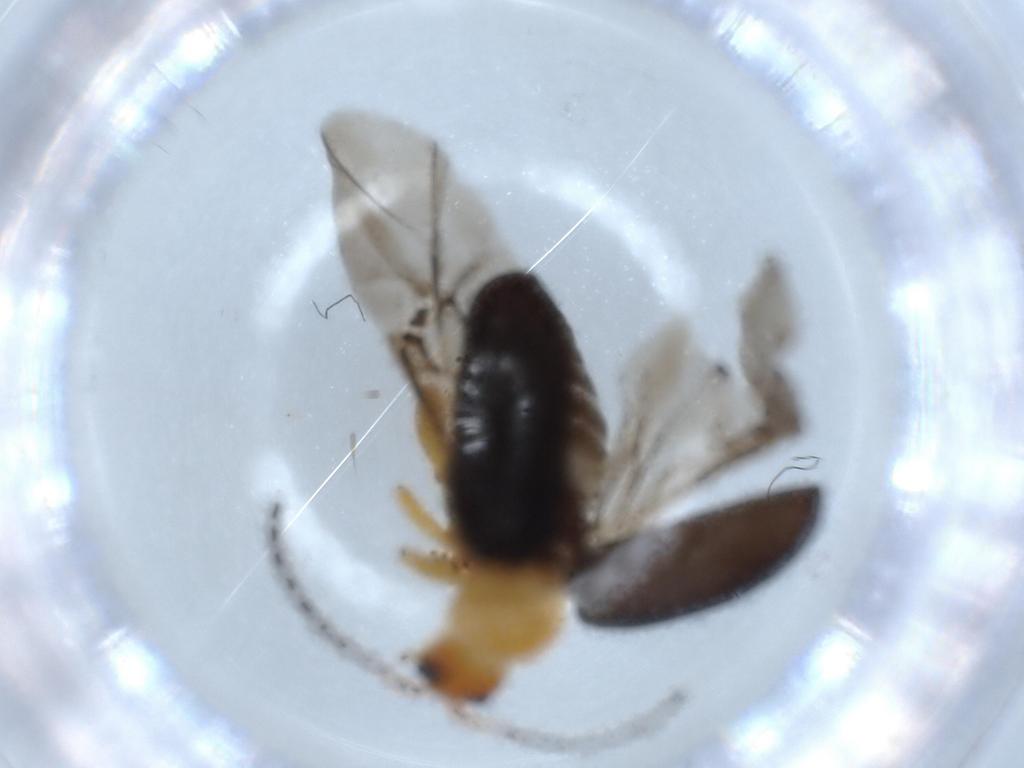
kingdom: Animalia
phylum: Arthropoda
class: Insecta
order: Coleoptera
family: Chrysomelidae
